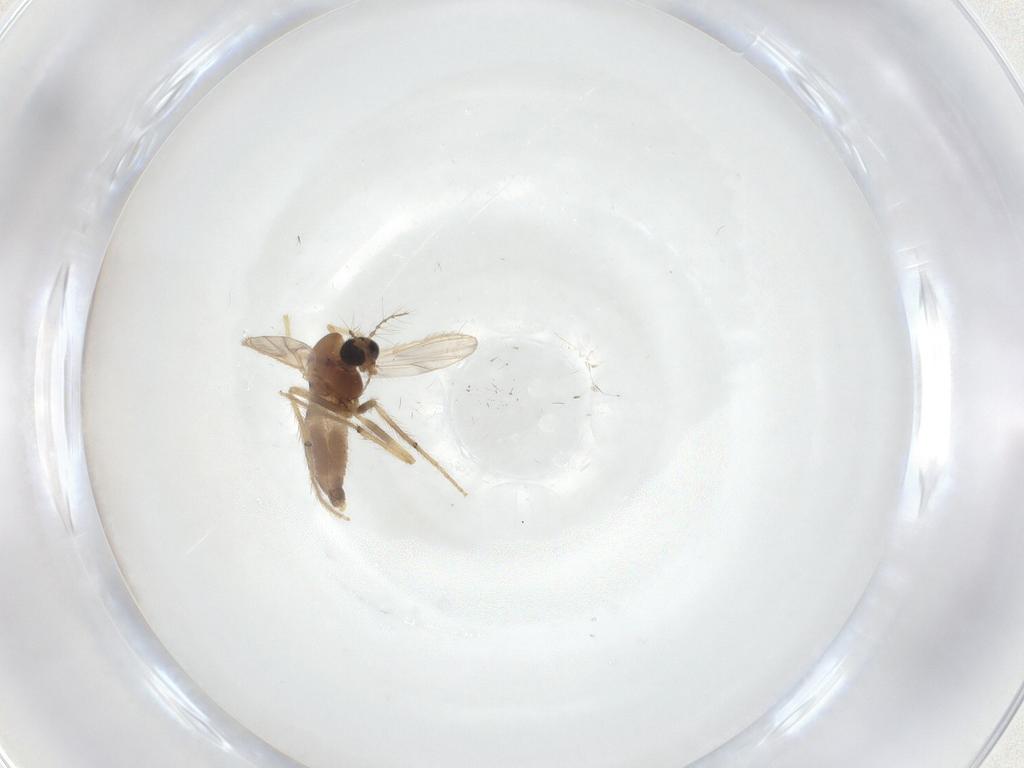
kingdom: Animalia
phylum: Arthropoda
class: Insecta
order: Diptera
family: Chironomidae
